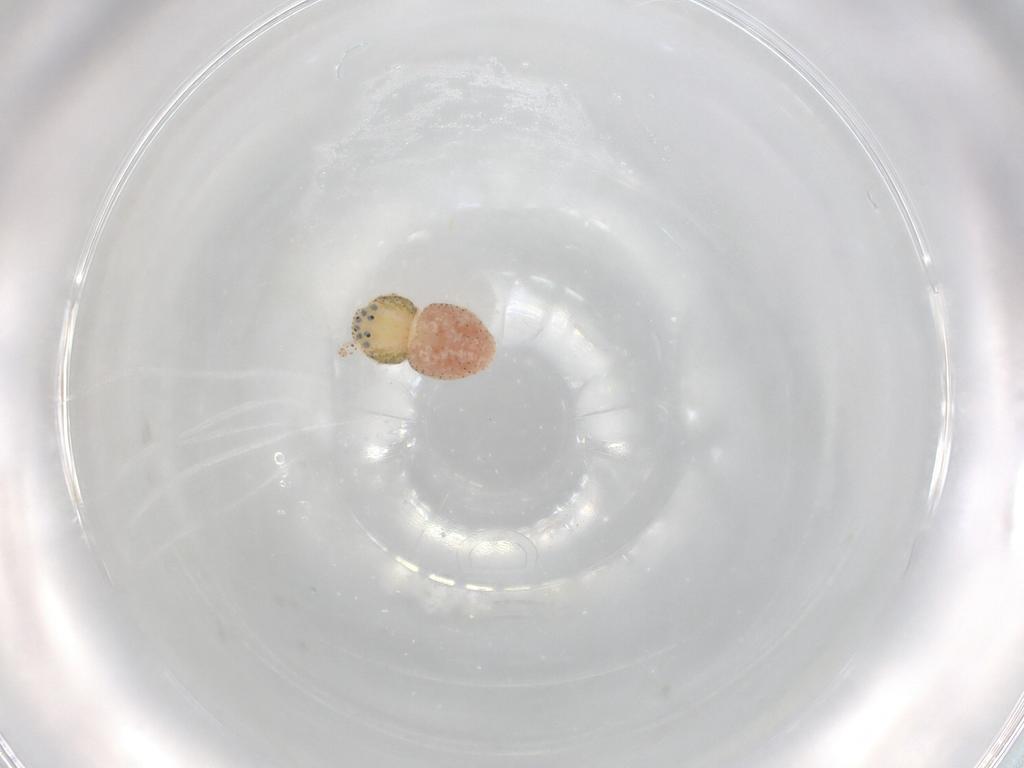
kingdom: Animalia
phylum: Arthropoda
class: Arachnida
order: Araneae
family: Philodromidae
